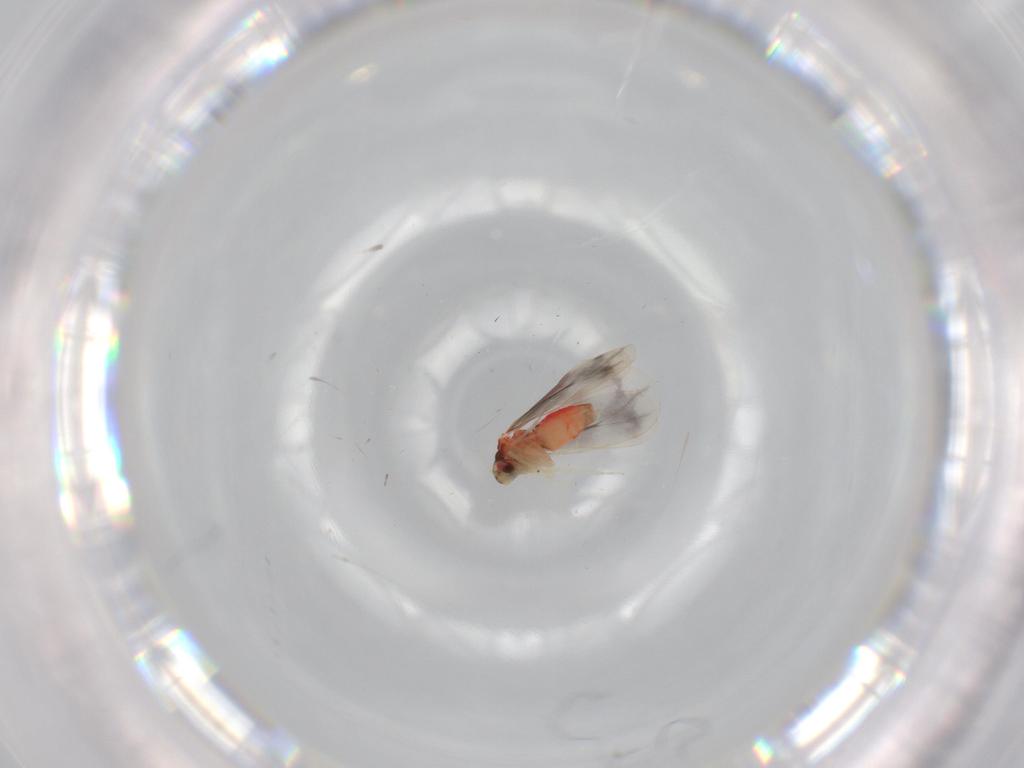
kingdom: Animalia
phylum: Arthropoda
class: Insecta
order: Hemiptera
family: Aleyrodidae
